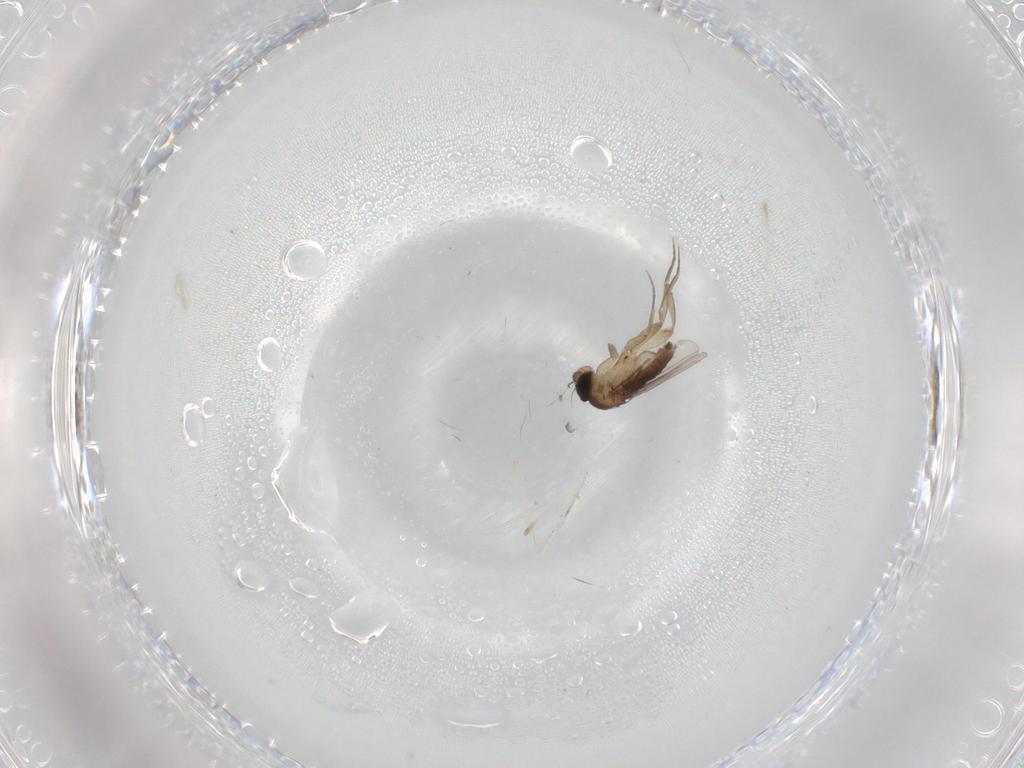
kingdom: Animalia
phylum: Arthropoda
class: Insecta
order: Diptera
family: Phoridae
